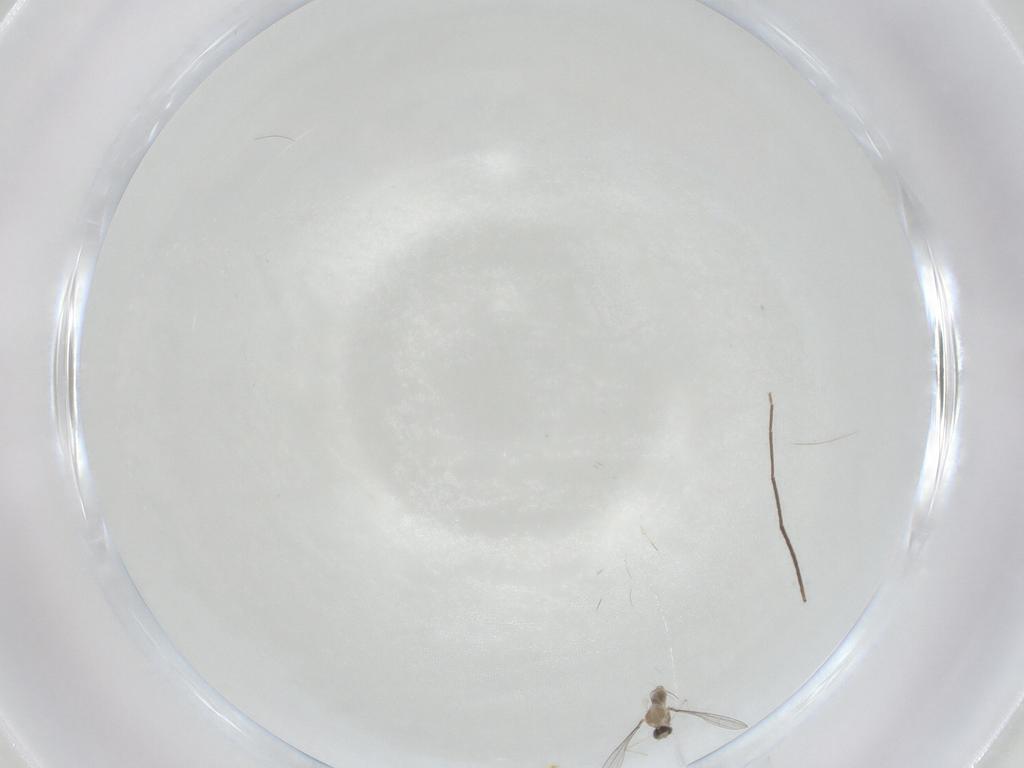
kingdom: Animalia
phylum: Arthropoda
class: Insecta
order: Diptera
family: Cecidomyiidae
